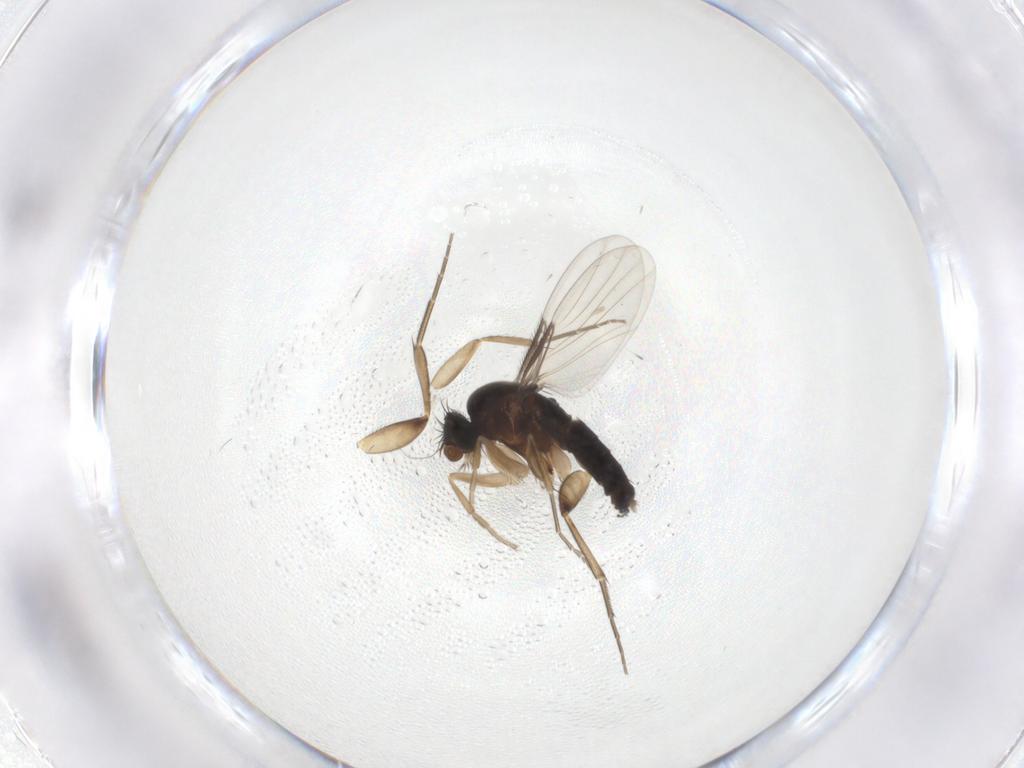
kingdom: Animalia
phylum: Arthropoda
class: Insecta
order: Diptera
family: Phoridae
